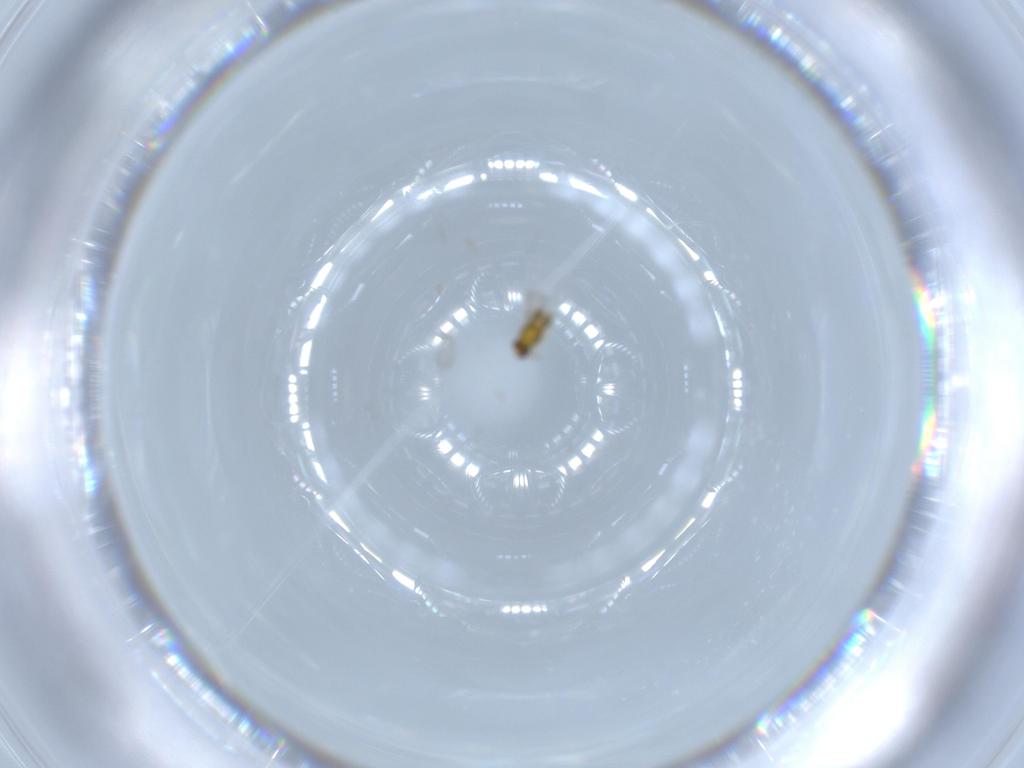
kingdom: Animalia
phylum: Arthropoda
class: Insecta
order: Hymenoptera
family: Aphelinidae
